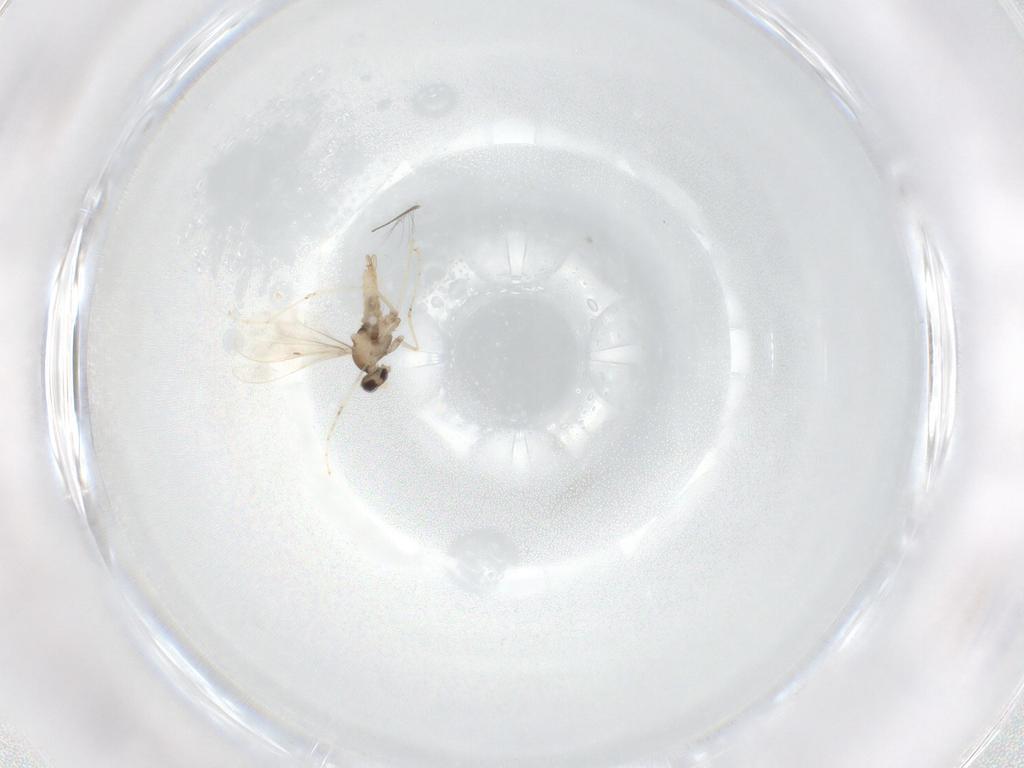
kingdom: Animalia
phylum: Arthropoda
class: Insecta
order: Diptera
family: Cecidomyiidae
